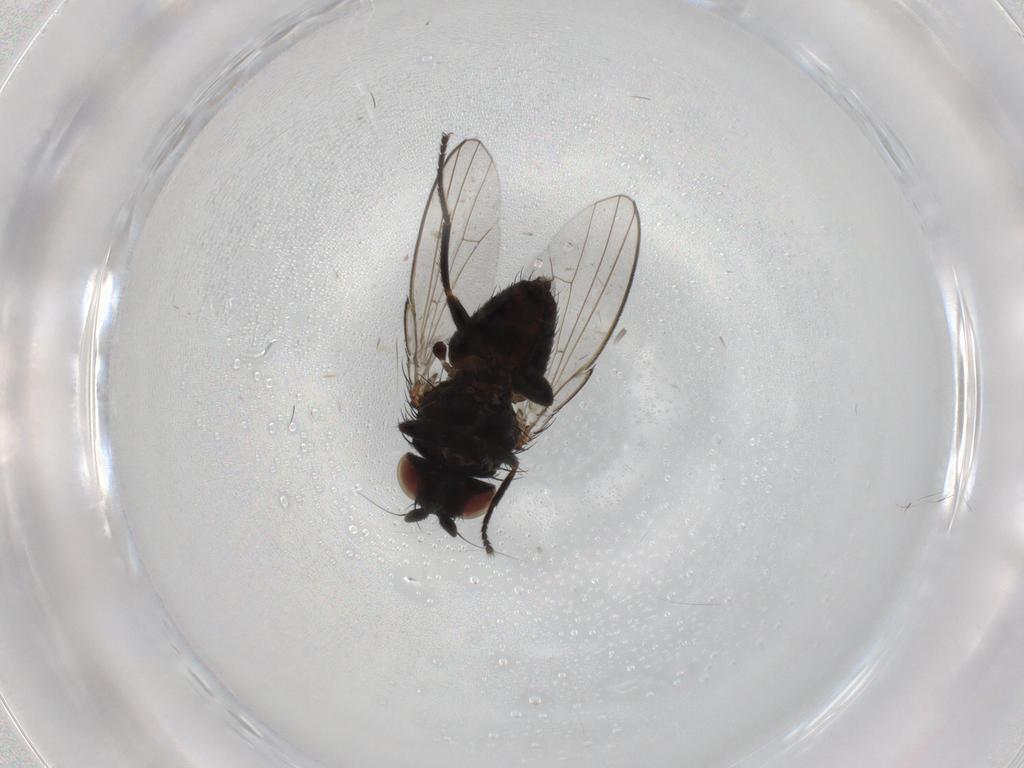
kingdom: Animalia
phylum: Arthropoda
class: Insecta
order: Diptera
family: Milichiidae
